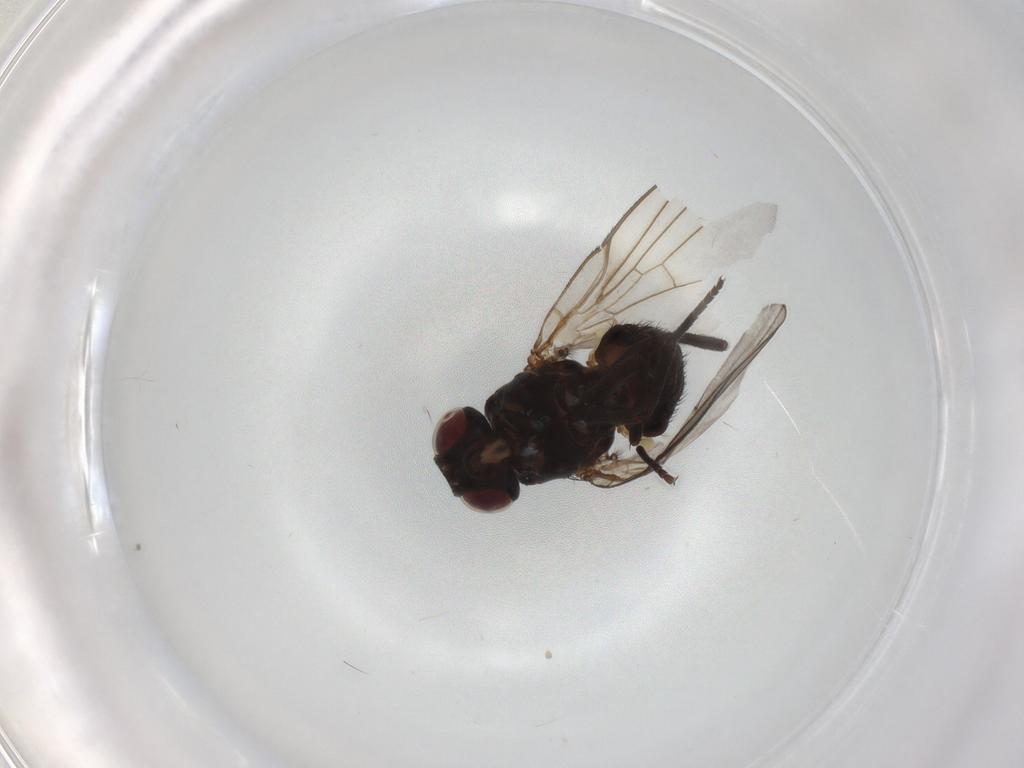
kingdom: Animalia
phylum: Arthropoda
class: Insecta
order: Diptera
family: Agromyzidae
